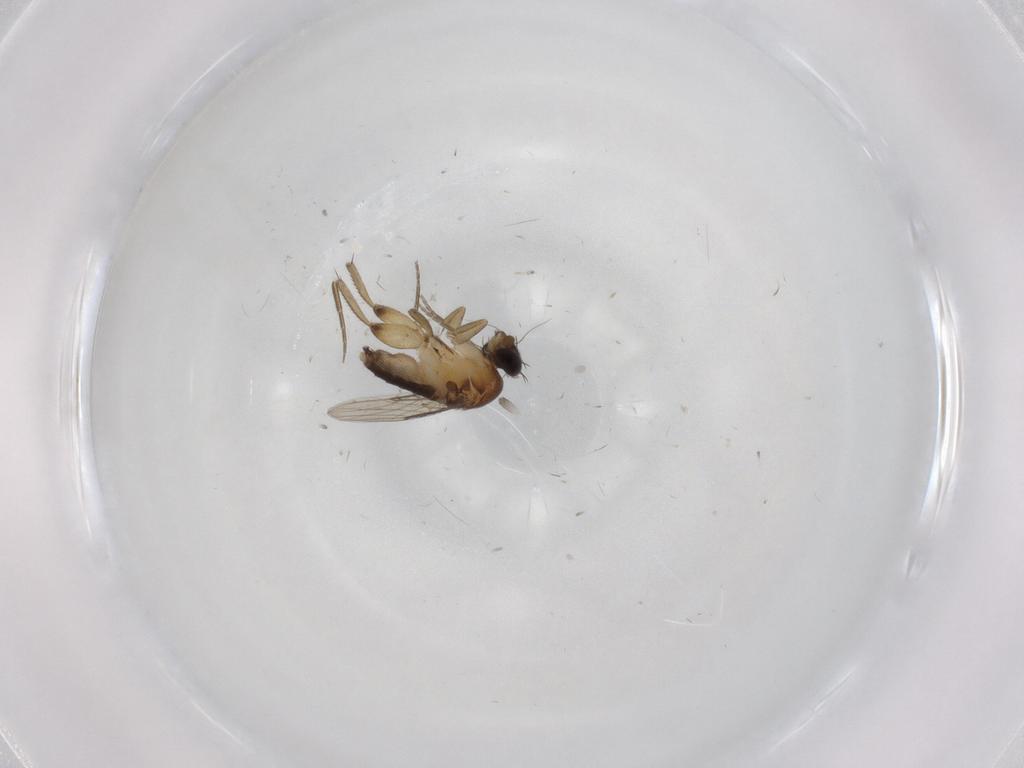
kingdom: Animalia
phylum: Arthropoda
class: Insecta
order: Diptera
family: Phoridae
